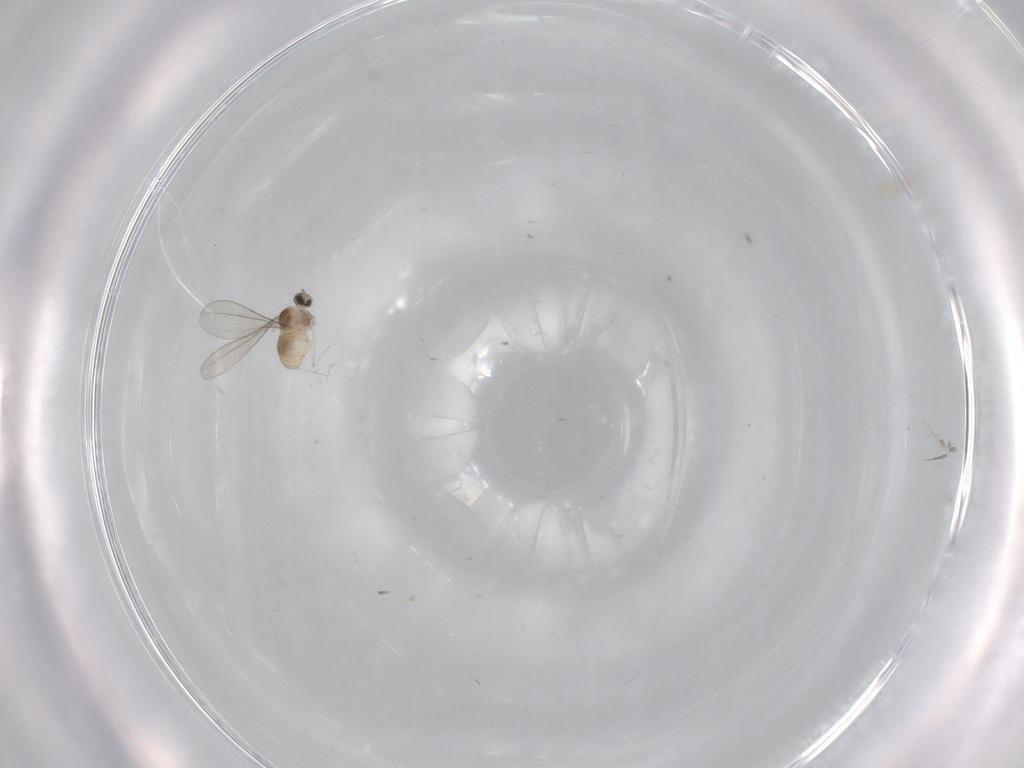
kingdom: Animalia
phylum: Arthropoda
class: Insecta
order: Diptera
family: Cecidomyiidae
